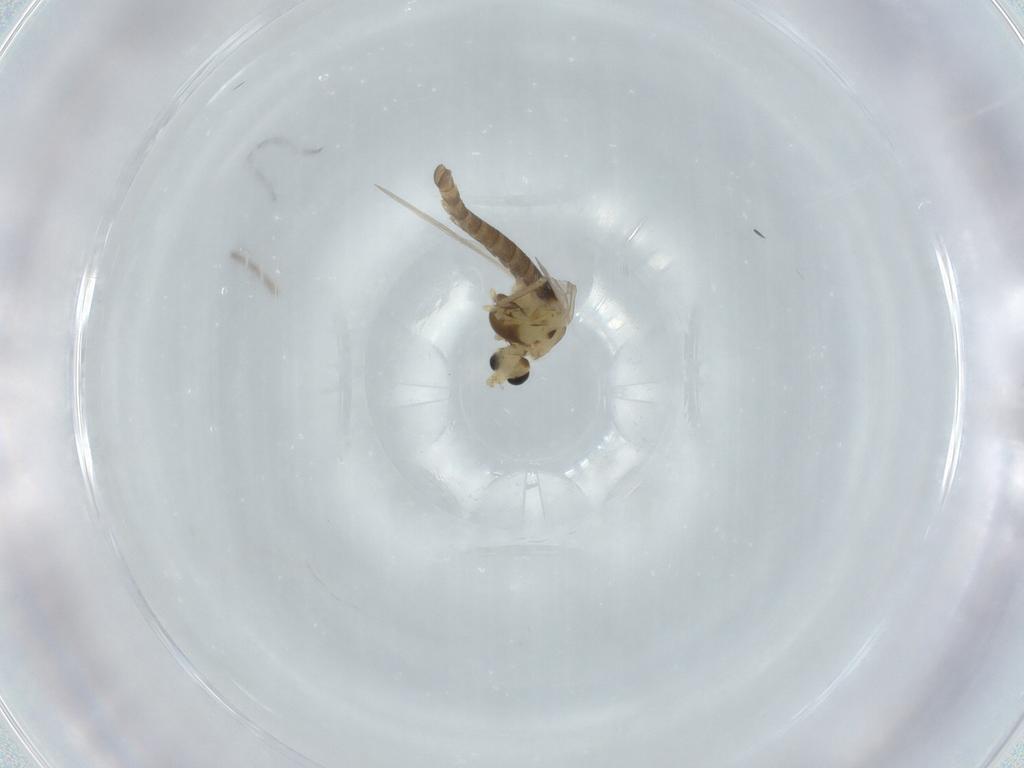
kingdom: Animalia
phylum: Arthropoda
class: Insecta
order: Diptera
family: Chironomidae
